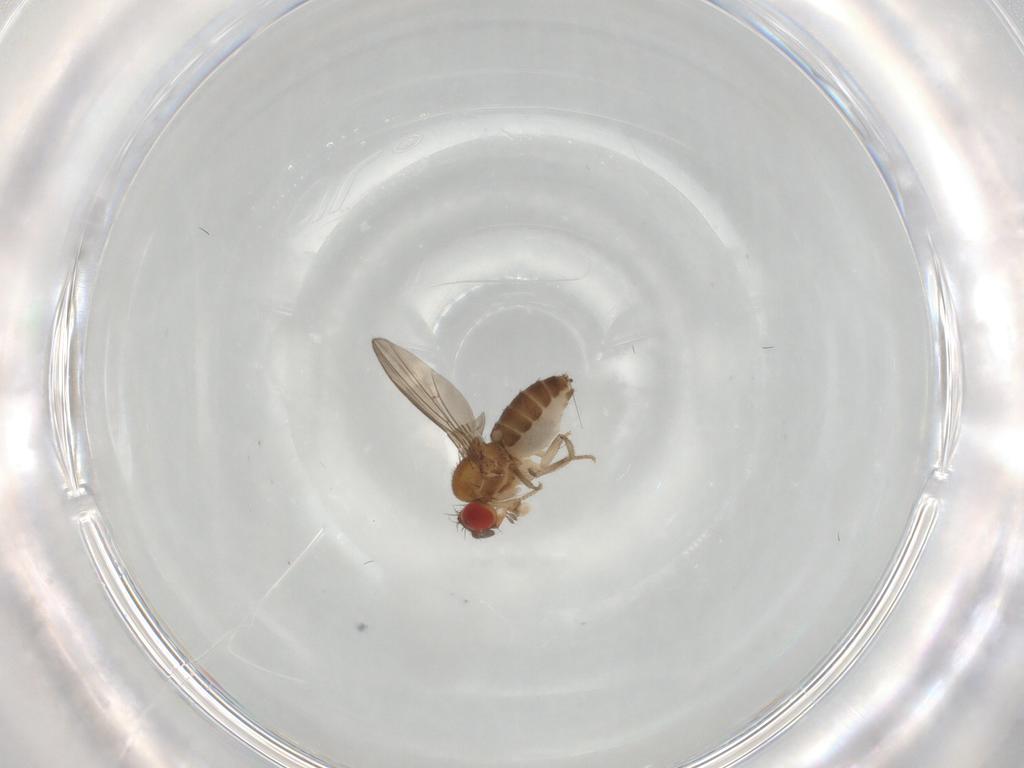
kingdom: Animalia
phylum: Arthropoda
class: Insecta
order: Diptera
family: Drosophilidae
